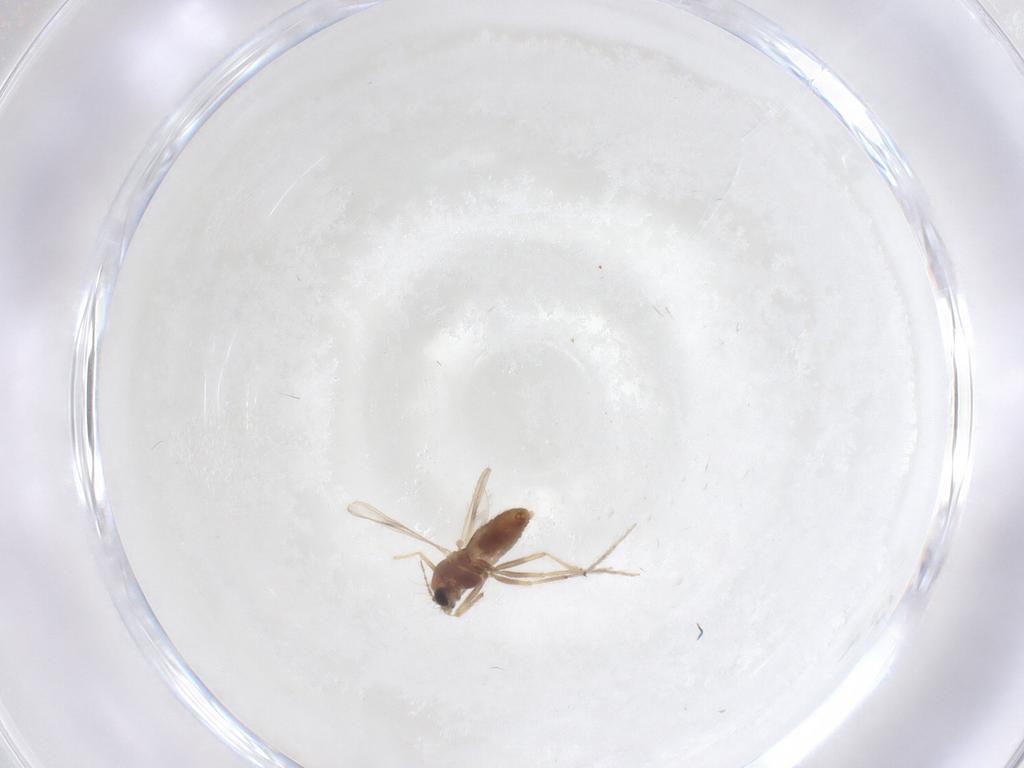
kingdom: Animalia
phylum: Arthropoda
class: Insecta
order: Diptera
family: Chironomidae
